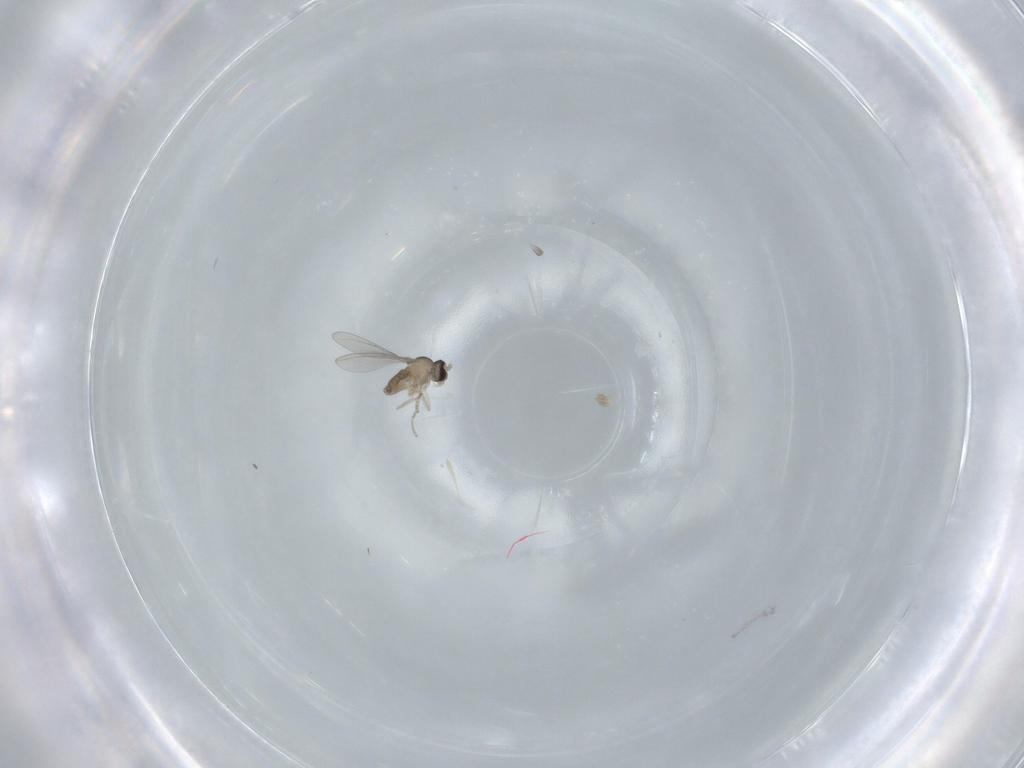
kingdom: Animalia
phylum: Arthropoda
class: Insecta
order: Diptera
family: Cecidomyiidae
